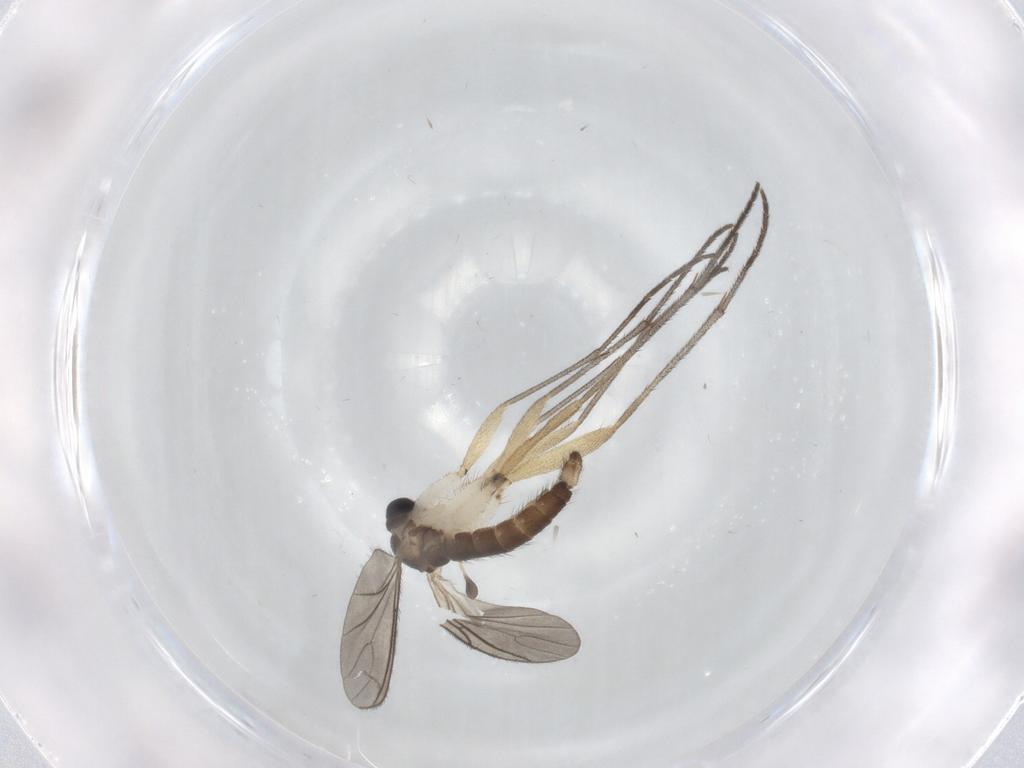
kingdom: Animalia
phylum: Arthropoda
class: Insecta
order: Diptera
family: Sciaridae
